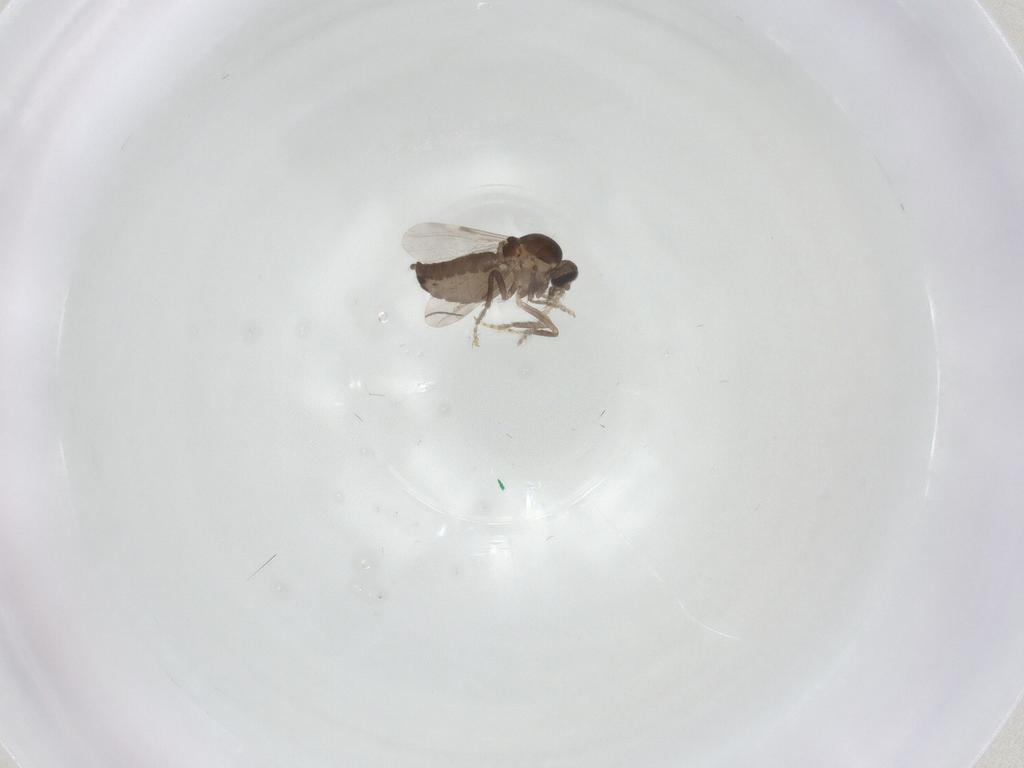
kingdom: Animalia
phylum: Arthropoda
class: Insecta
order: Diptera
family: Ceratopogonidae
